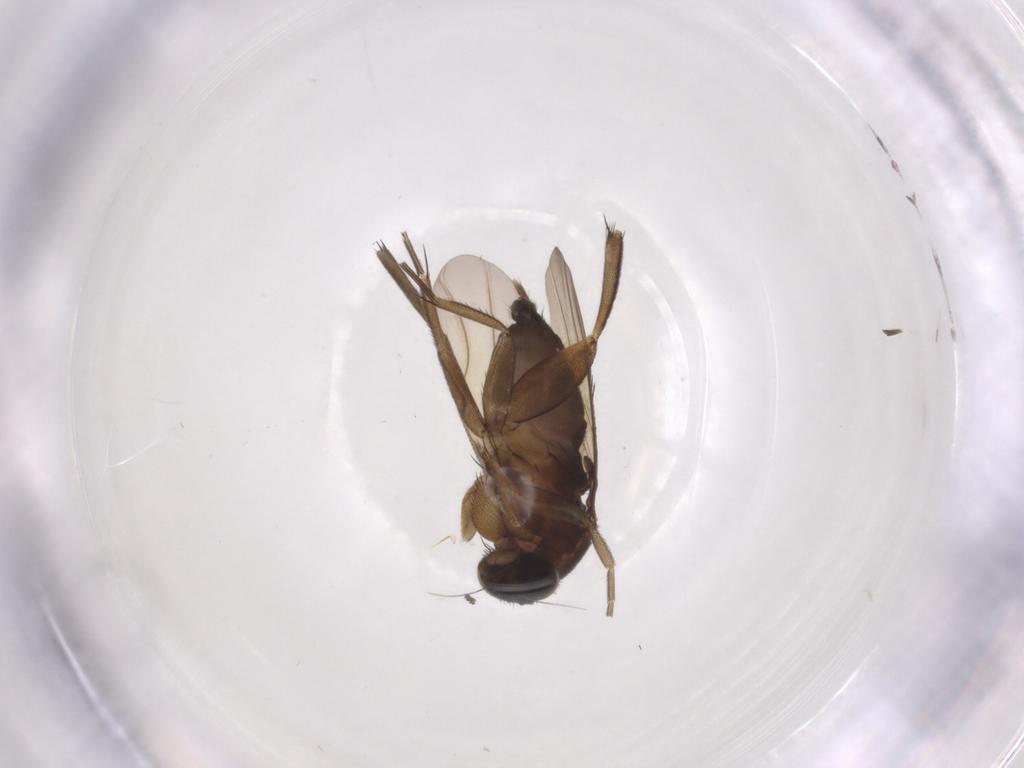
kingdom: Animalia
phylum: Arthropoda
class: Insecta
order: Diptera
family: Phoridae
